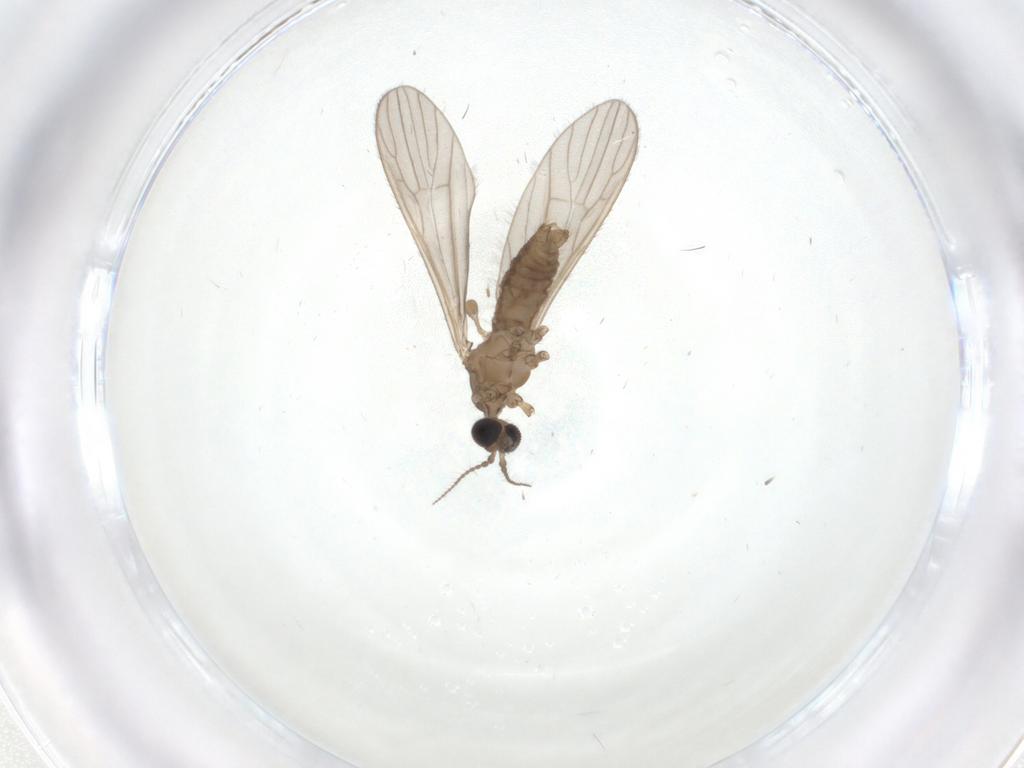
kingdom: Animalia
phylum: Arthropoda
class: Insecta
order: Diptera
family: Limoniidae
